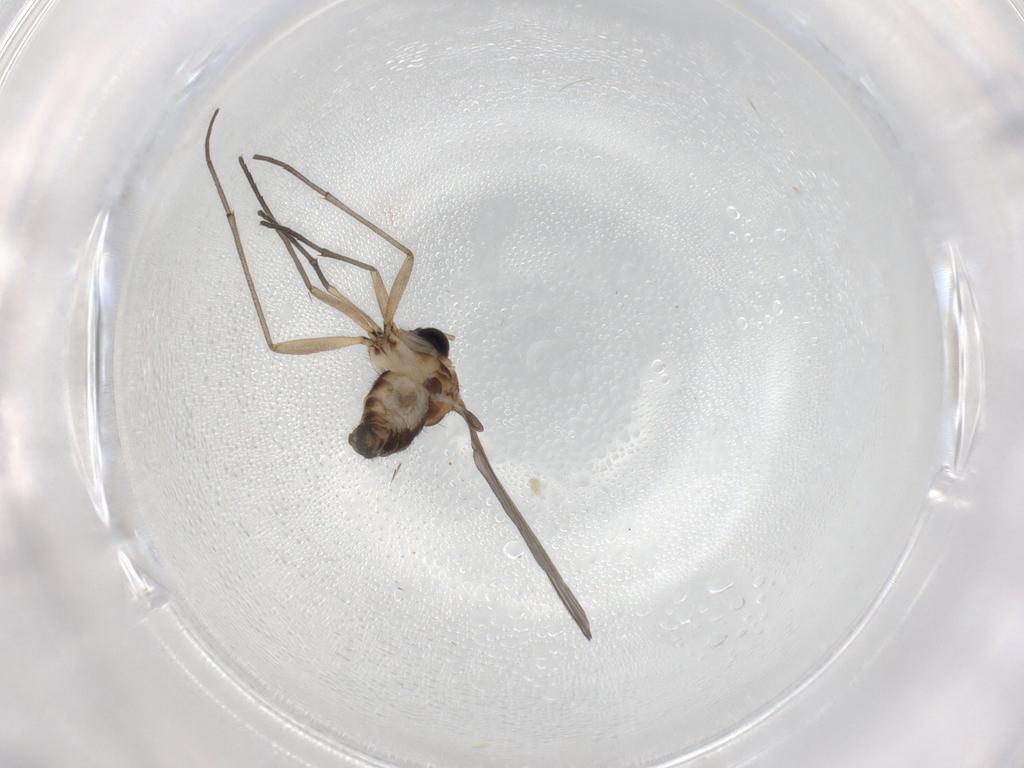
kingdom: Animalia
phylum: Arthropoda
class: Insecta
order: Diptera
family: Sciaridae
